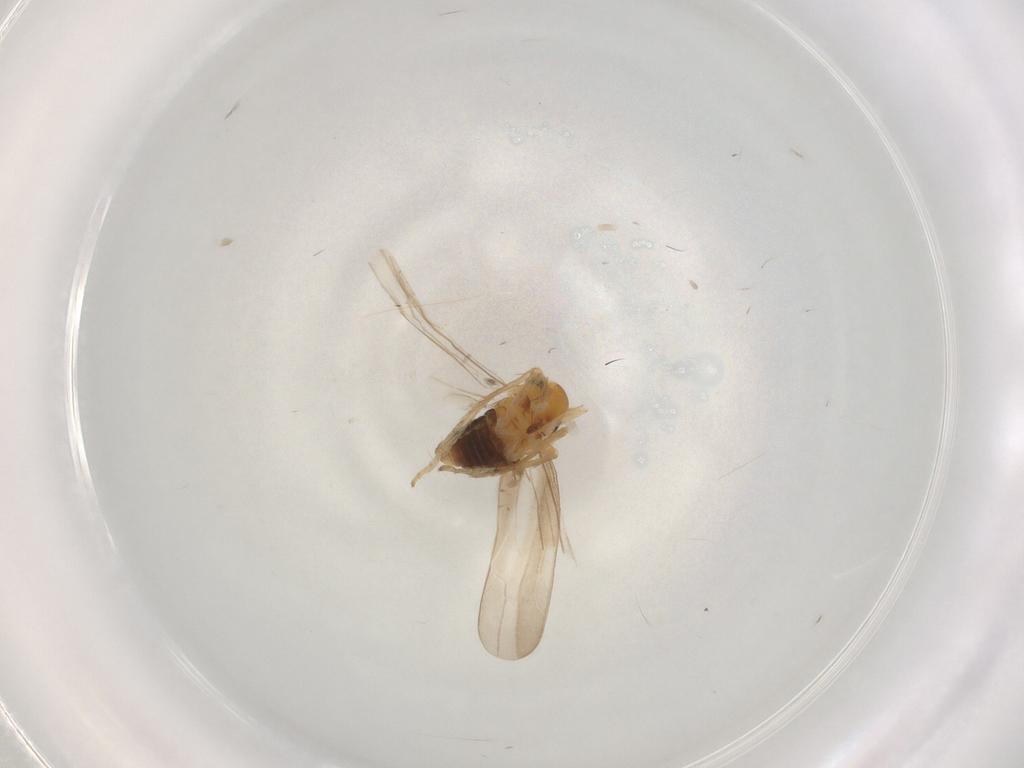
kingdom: Animalia
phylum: Arthropoda
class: Insecta
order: Hemiptera
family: Cicadellidae
